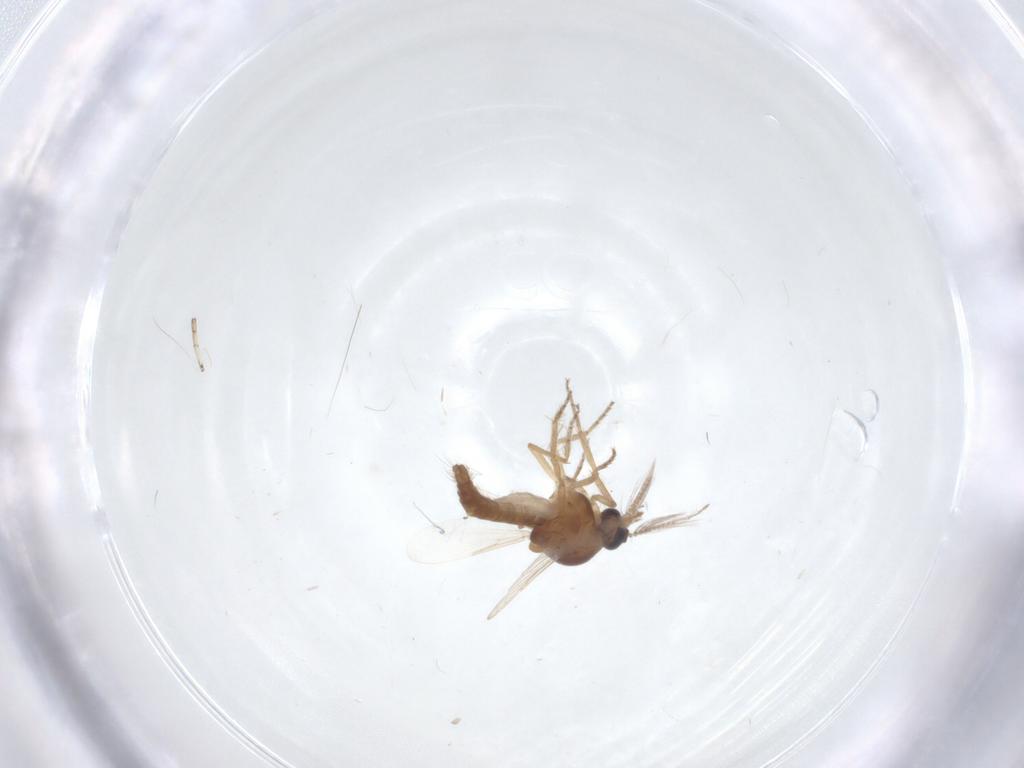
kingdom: Animalia
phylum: Arthropoda
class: Insecta
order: Diptera
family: Ceratopogonidae
